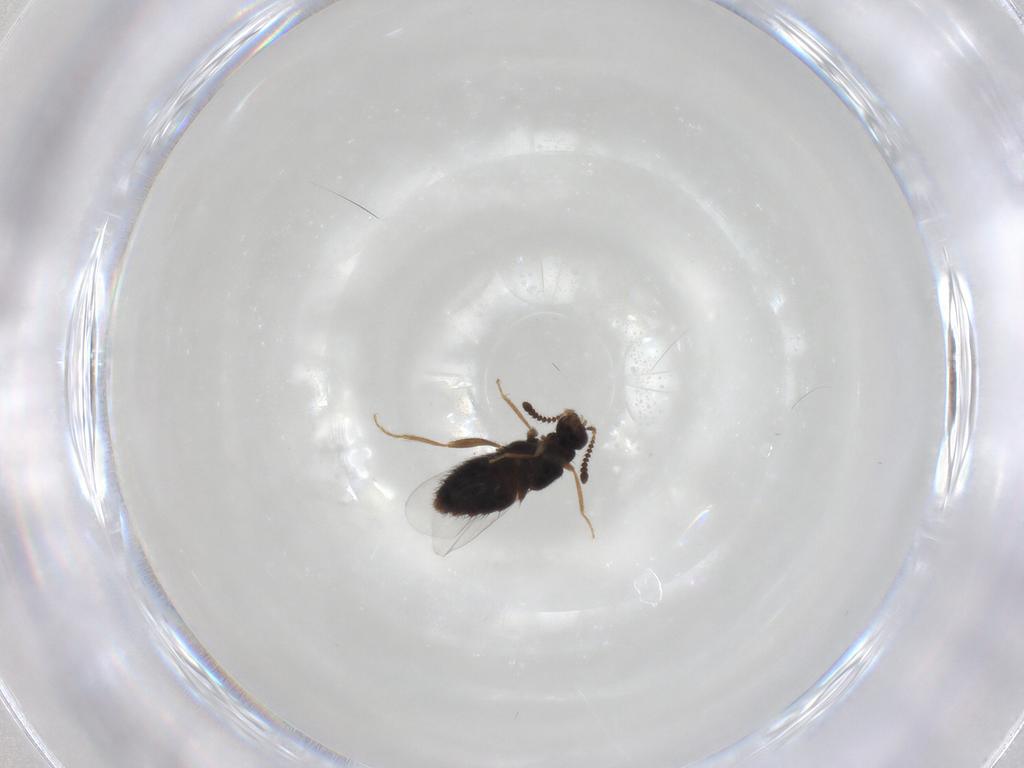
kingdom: Animalia
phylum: Arthropoda
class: Insecta
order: Coleoptera
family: Staphylinidae
